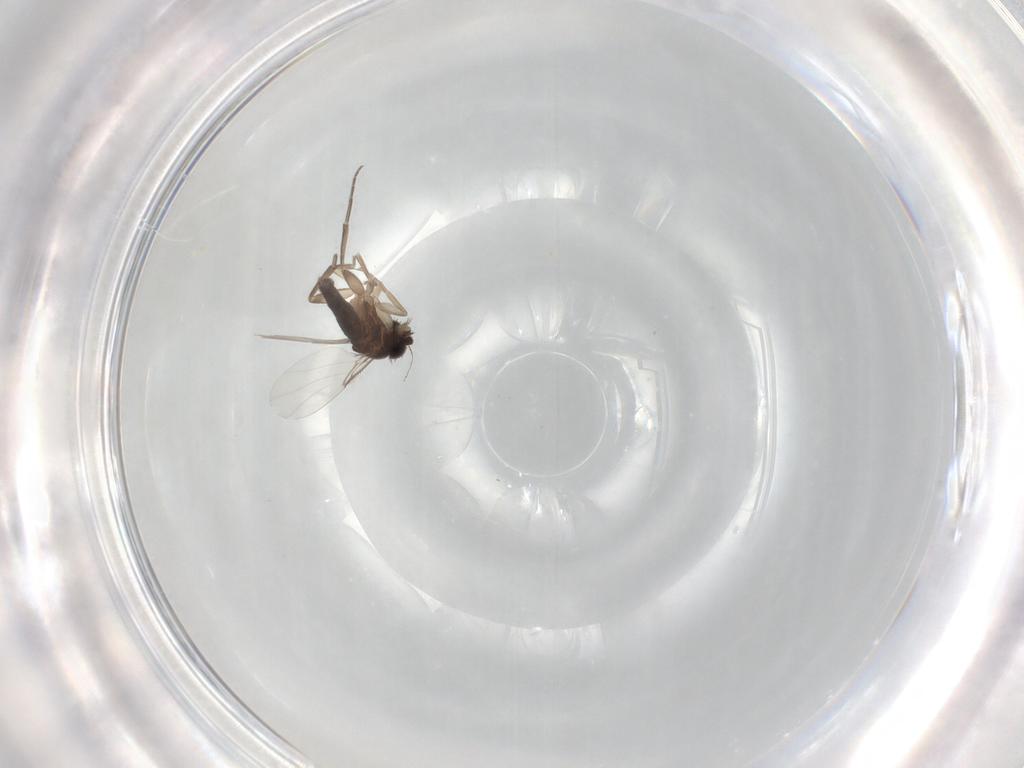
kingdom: Animalia
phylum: Arthropoda
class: Insecta
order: Diptera
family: Phoridae
